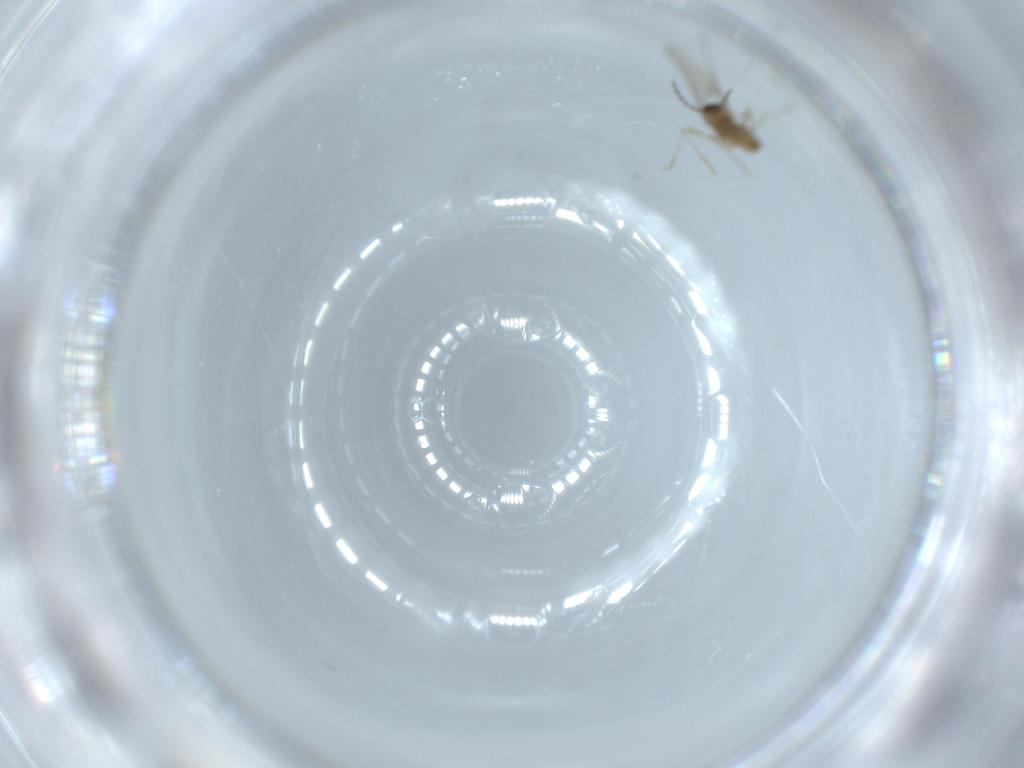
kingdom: Animalia
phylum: Arthropoda
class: Insecta
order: Diptera
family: Cecidomyiidae
